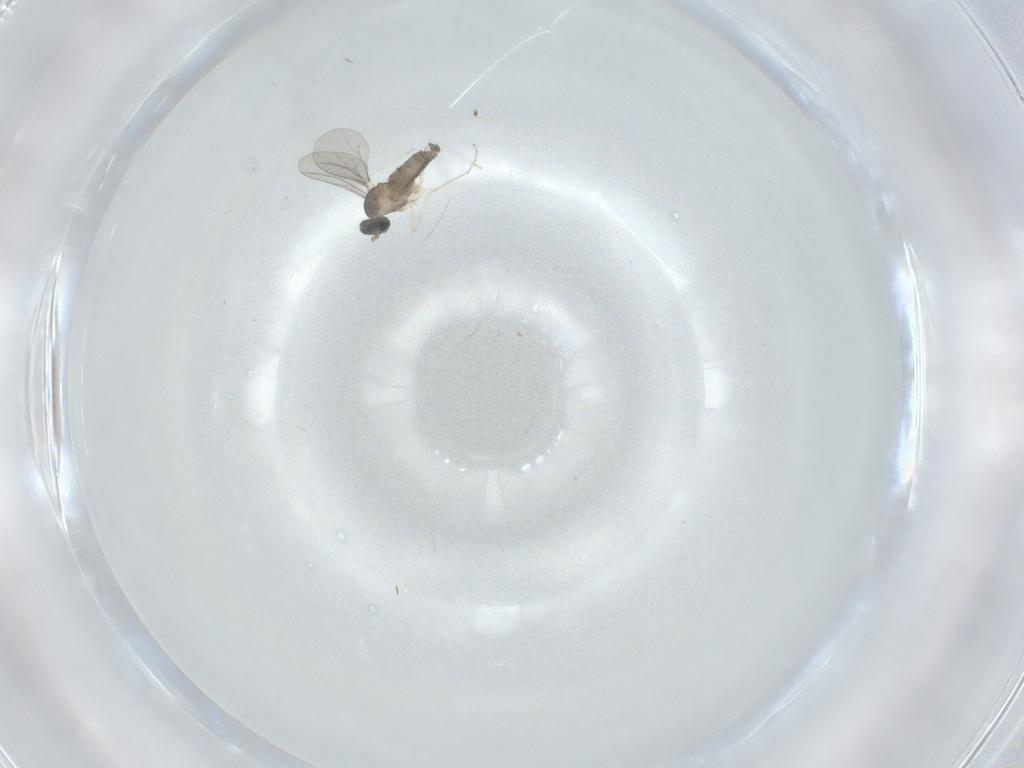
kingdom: Animalia
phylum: Arthropoda
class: Insecta
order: Diptera
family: Cecidomyiidae
